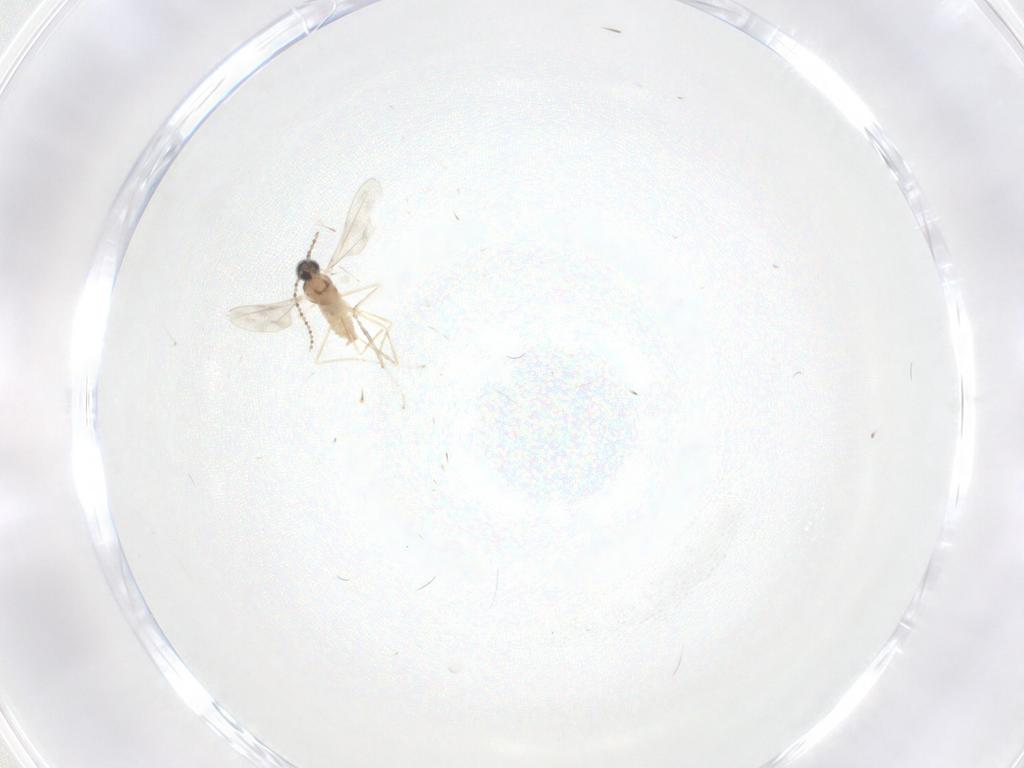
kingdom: Animalia
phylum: Arthropoda
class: Insecta
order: Diptera
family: Cecidomyiidae
